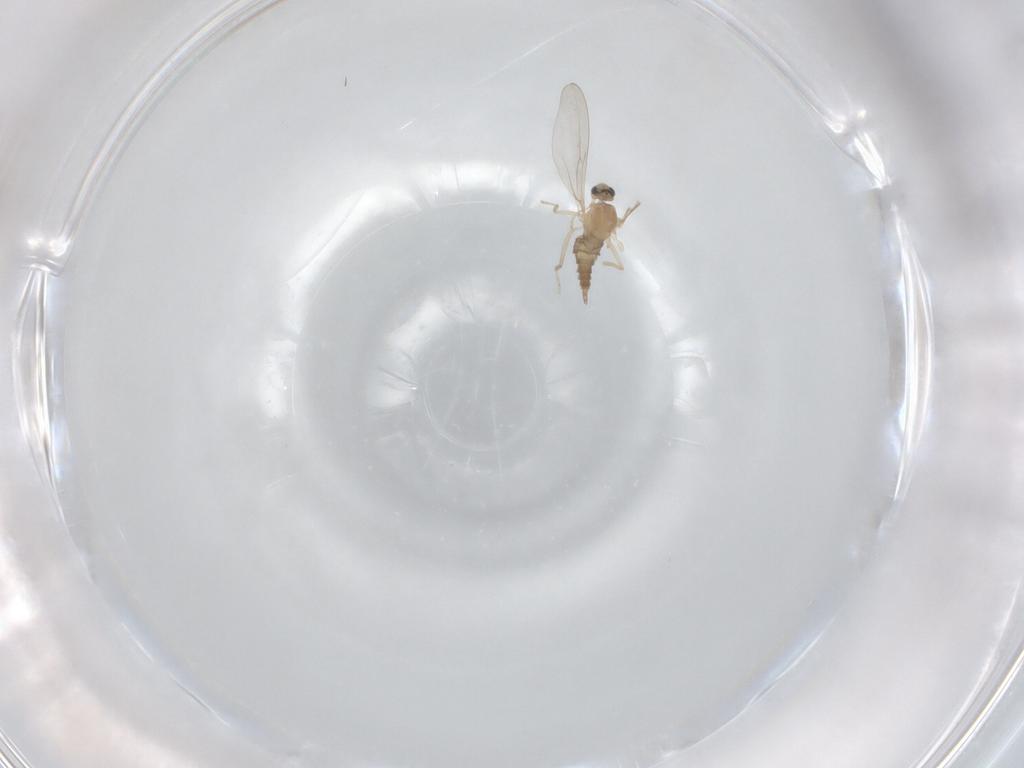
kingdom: Animalia
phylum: Arthropoda
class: Insecta
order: Diptera
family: Cecidomyiidae
